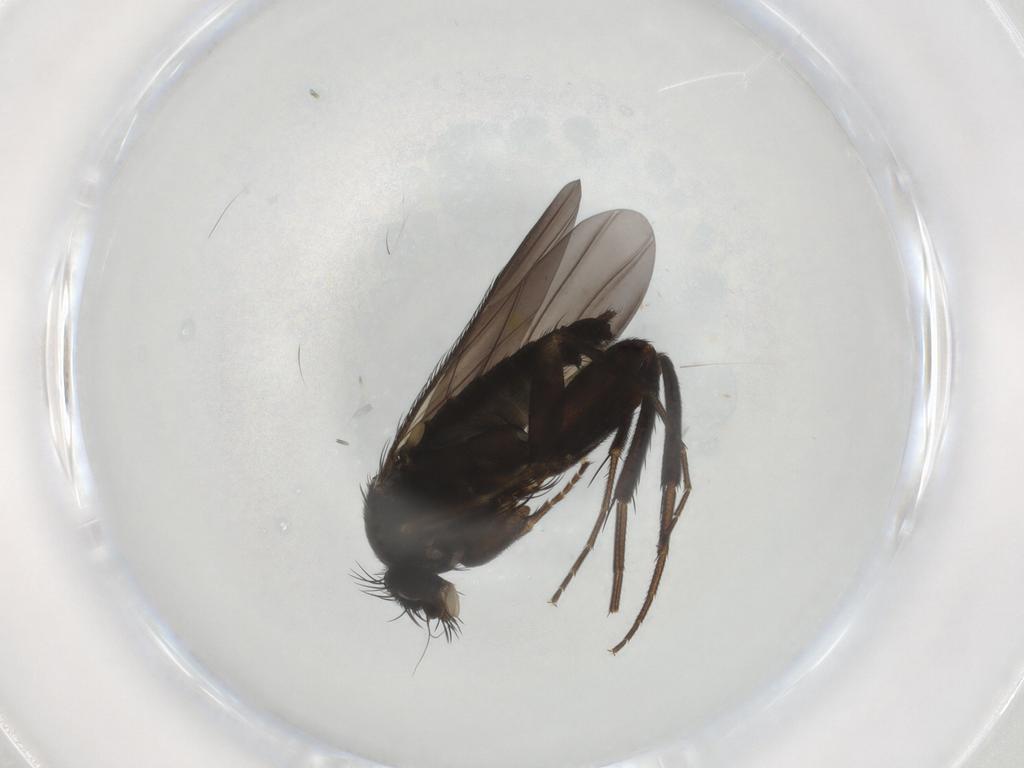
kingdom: Animalia
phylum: Arthropoda
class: Insecta
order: Diptera
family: Phoridae
